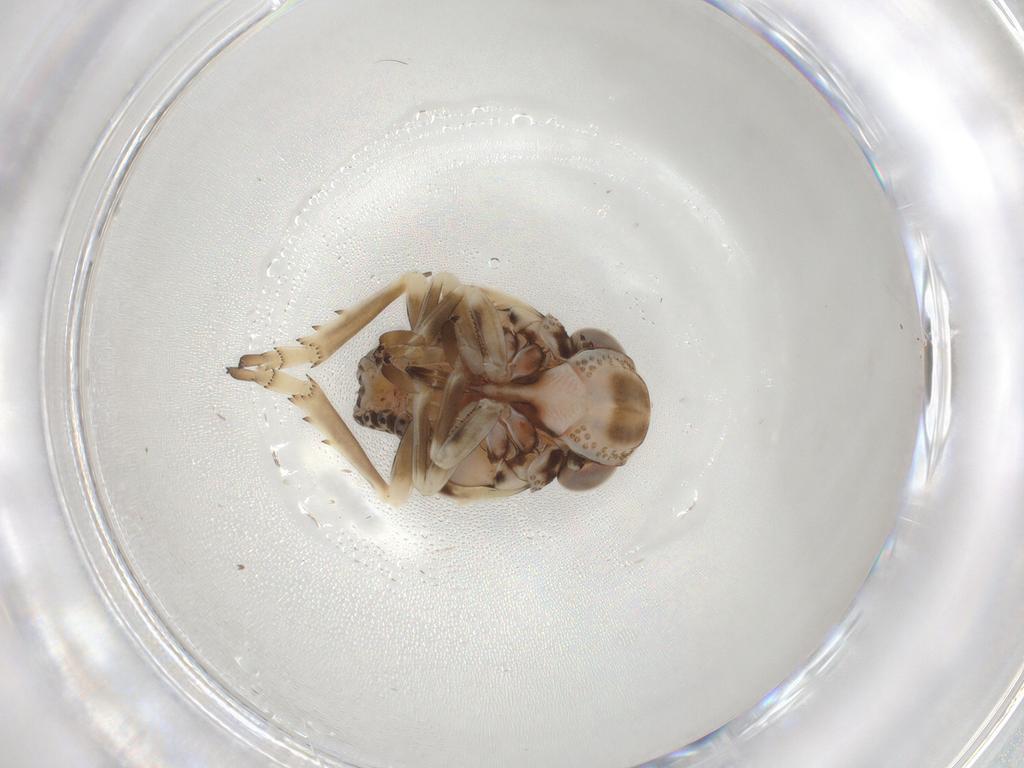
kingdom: Animalia
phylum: Arthropoda
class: Insecta
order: Hemiptera
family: Fulgoroidea_incertae_sedis
